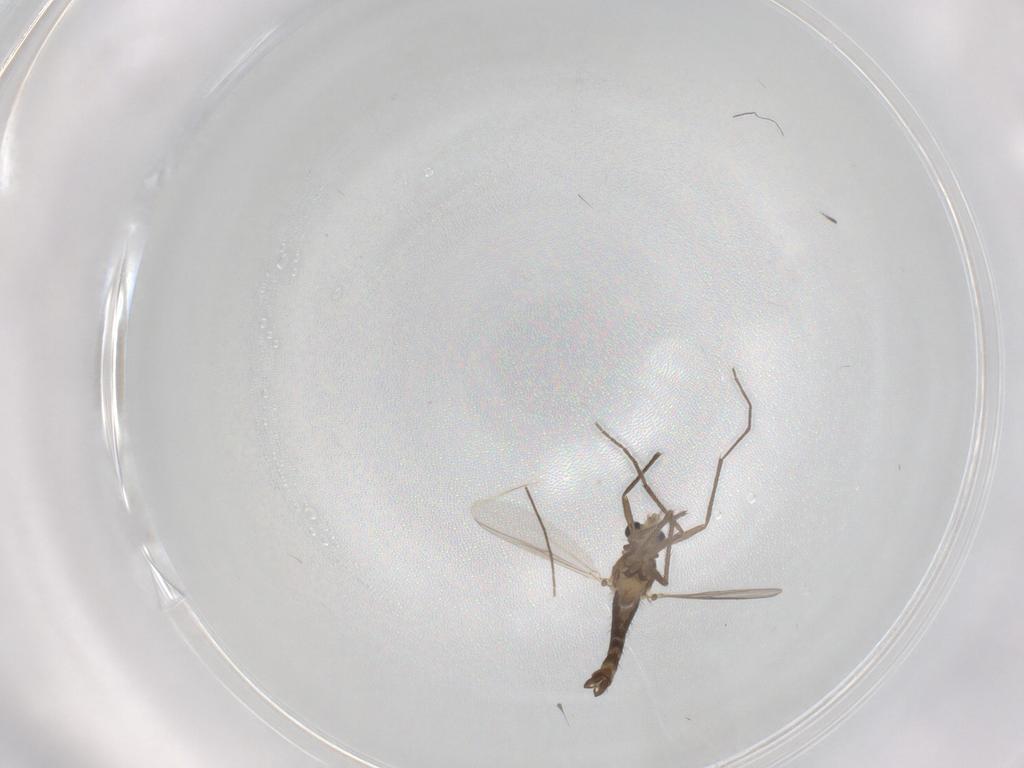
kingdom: Animalia
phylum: Arthropoda
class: Insecta
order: Diptera
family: Chironomidae
